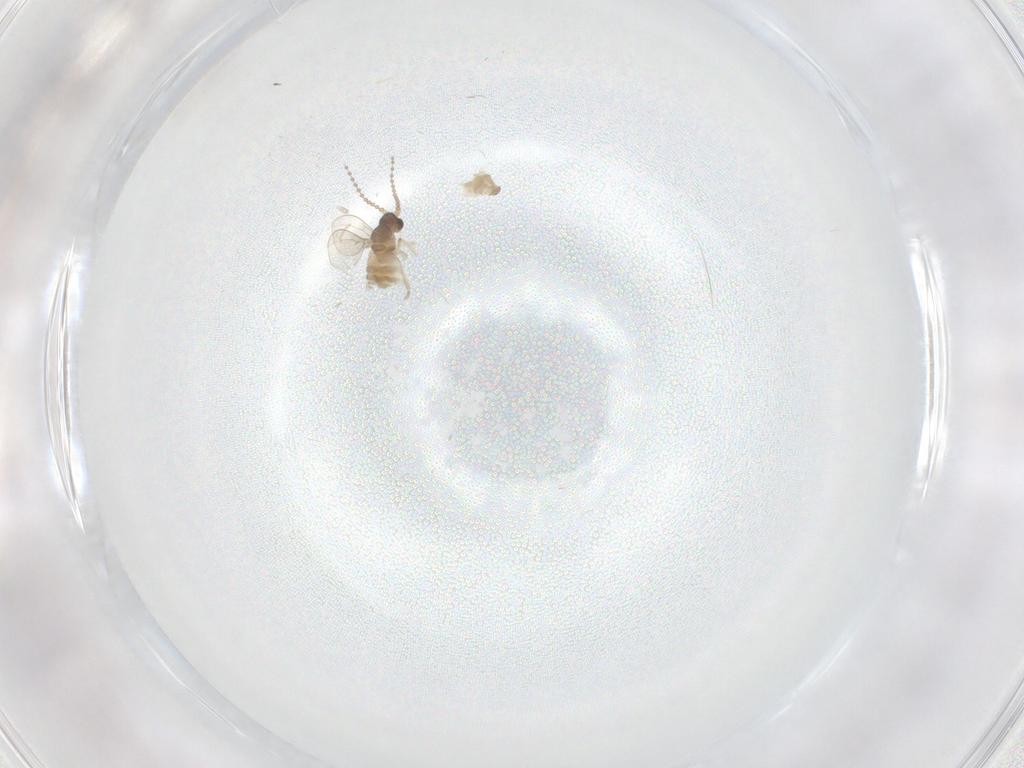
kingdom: Animalia
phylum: Arthropoda
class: Insecta
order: Diptera
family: Cecidomyiidae
